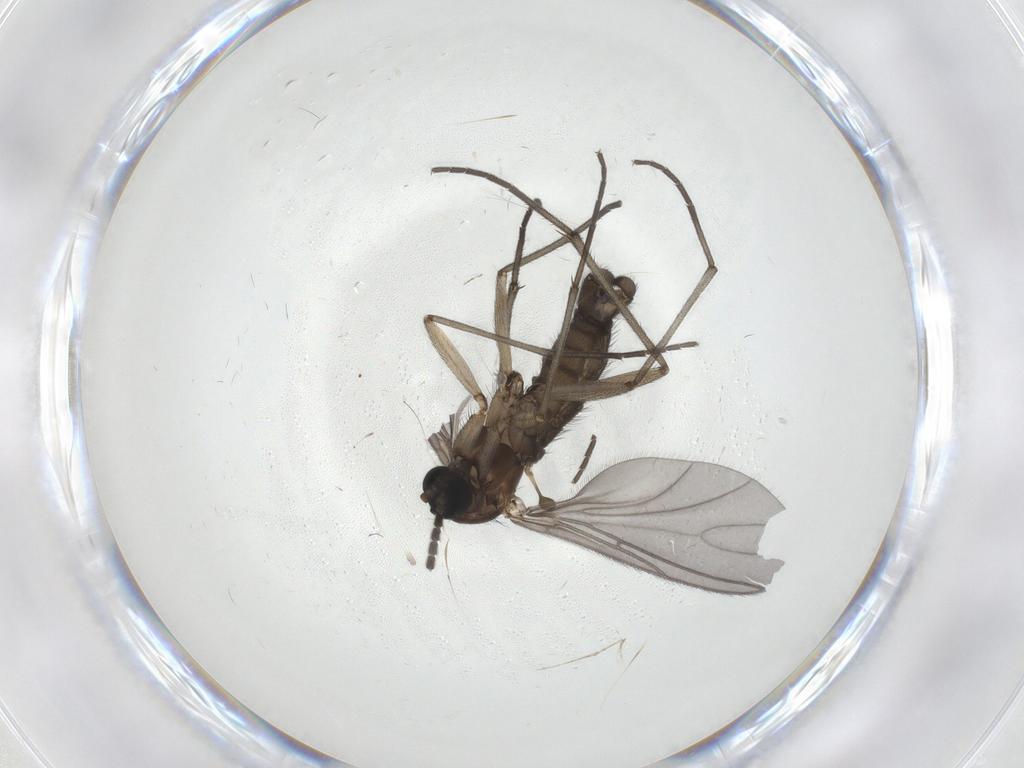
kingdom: Animalia
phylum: Arthropoda
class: Insecta
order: Diptera
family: Sciaridae
